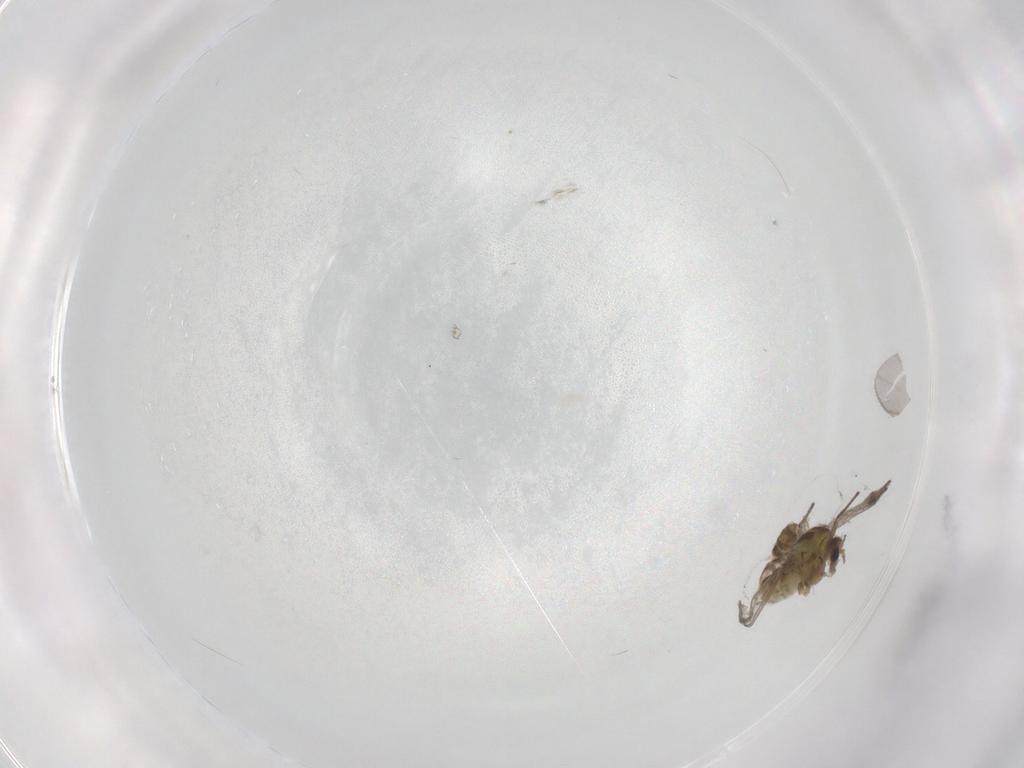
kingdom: Animalia
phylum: Arthropoda
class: Insecta
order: Diptera
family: Chironomidae
